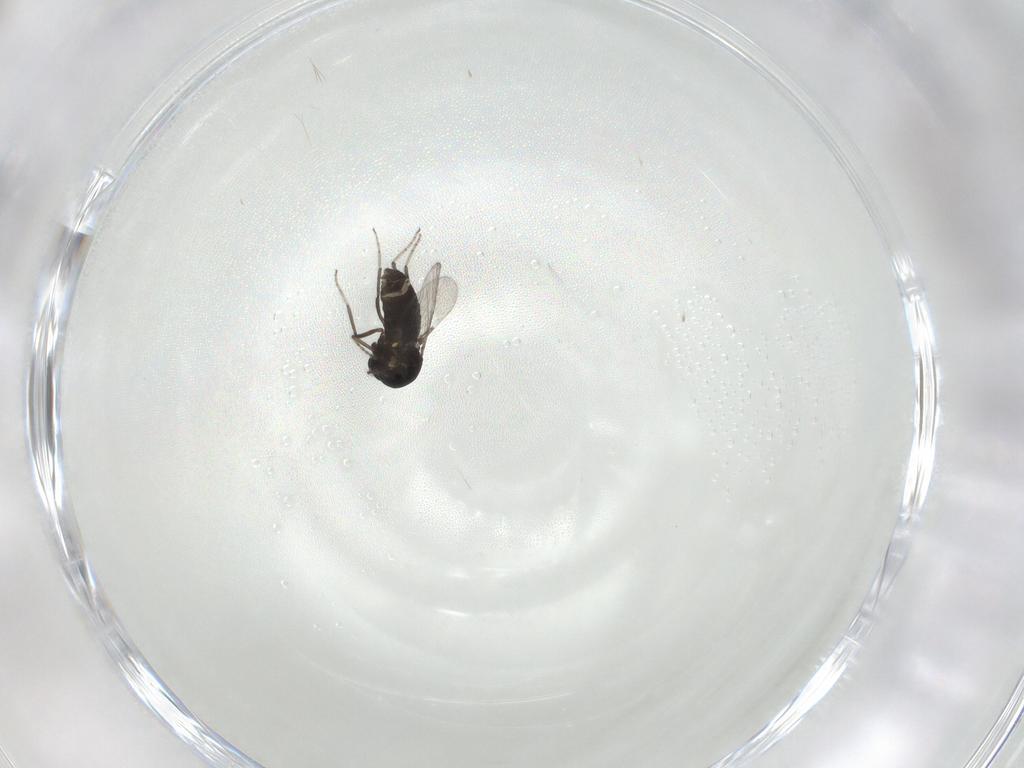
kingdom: Animalia
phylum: Arthropoda
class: Insecta
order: Diptera
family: Ceratopogonidae
